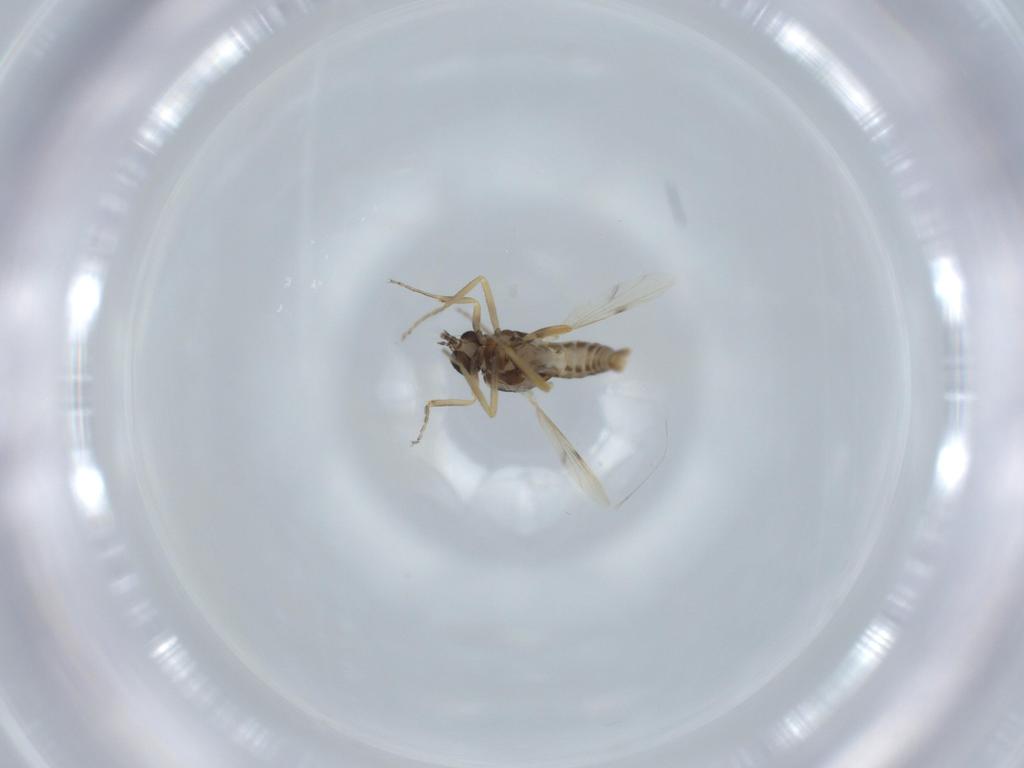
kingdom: Animalia
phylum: Arthropoda
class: Insecta
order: Diptera
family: Ceratopogonidae
